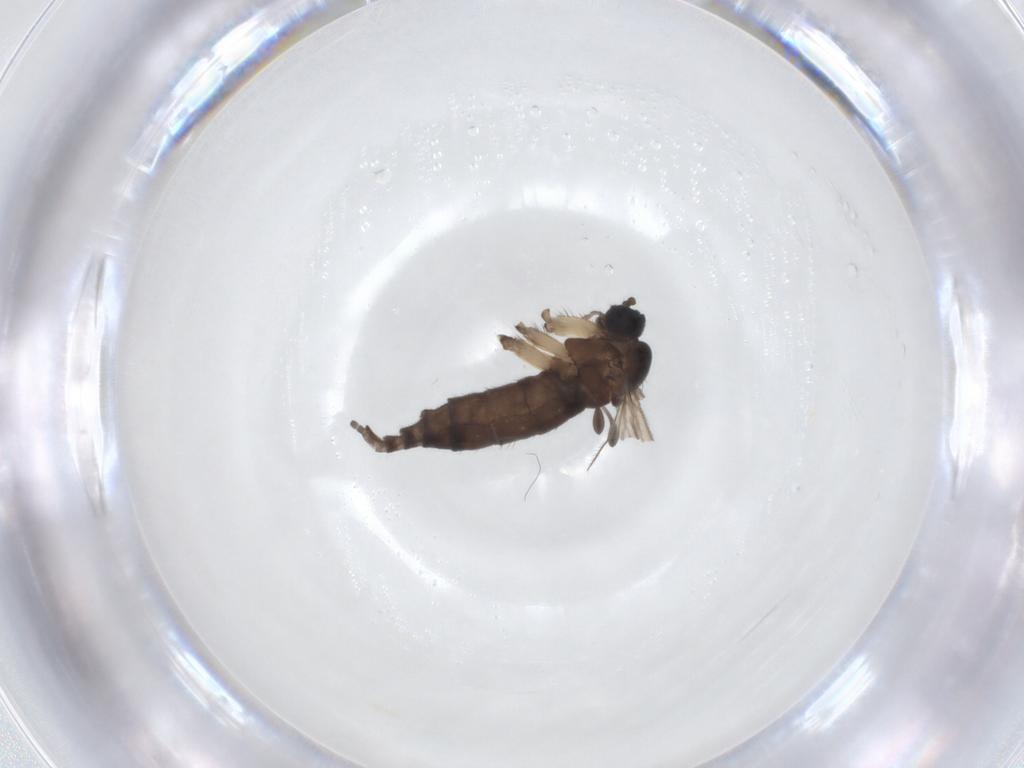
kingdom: Animalia
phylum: Arthropoda
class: Insecta
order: Diptera
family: Sciaridae
